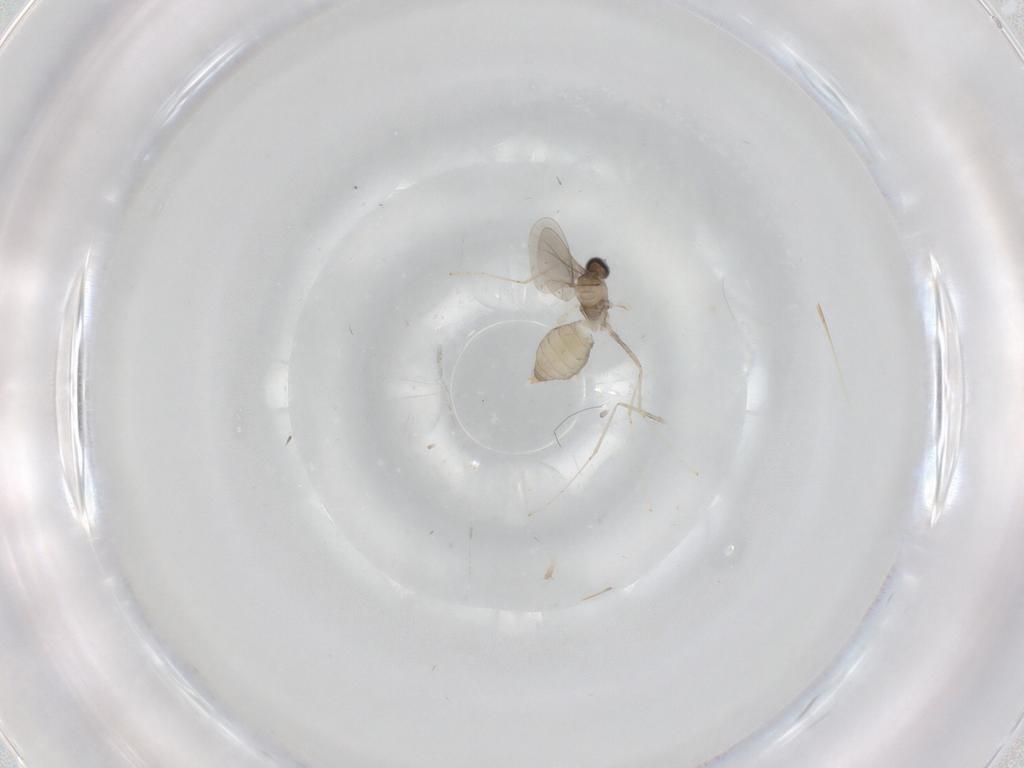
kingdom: Animalia
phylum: Arthropoda
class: Insecta
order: Diptera
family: Cecidomyiidae
